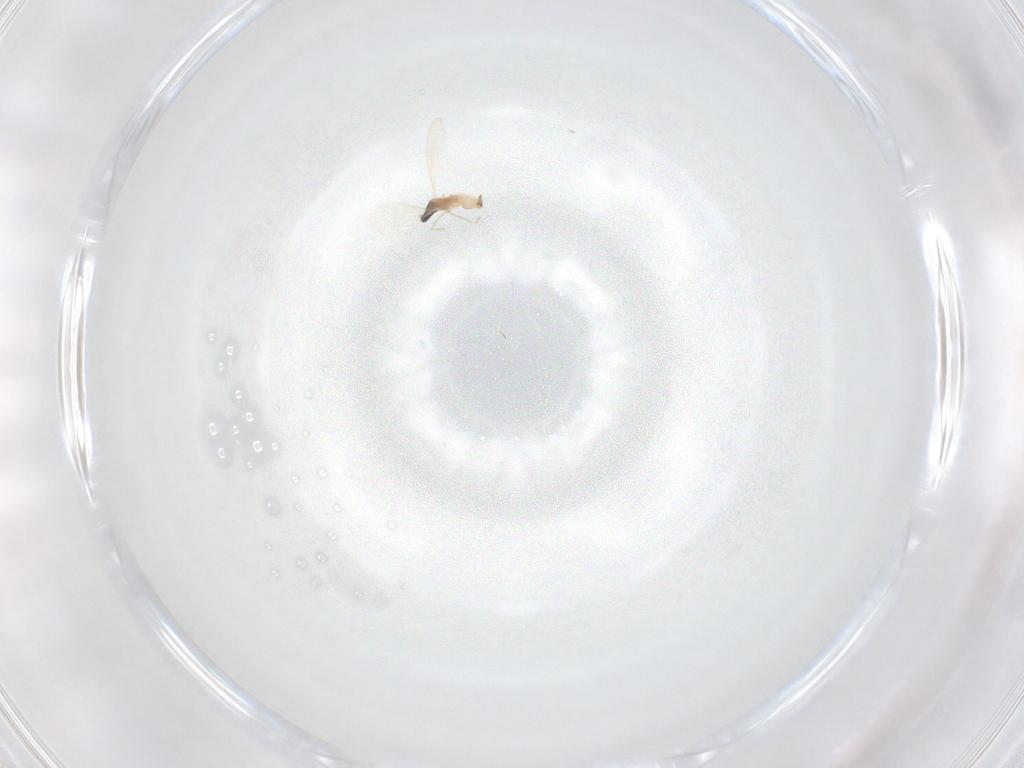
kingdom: Animalia
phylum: Arthropoda
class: Insecta
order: Diptera
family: Cecidomyiidae
